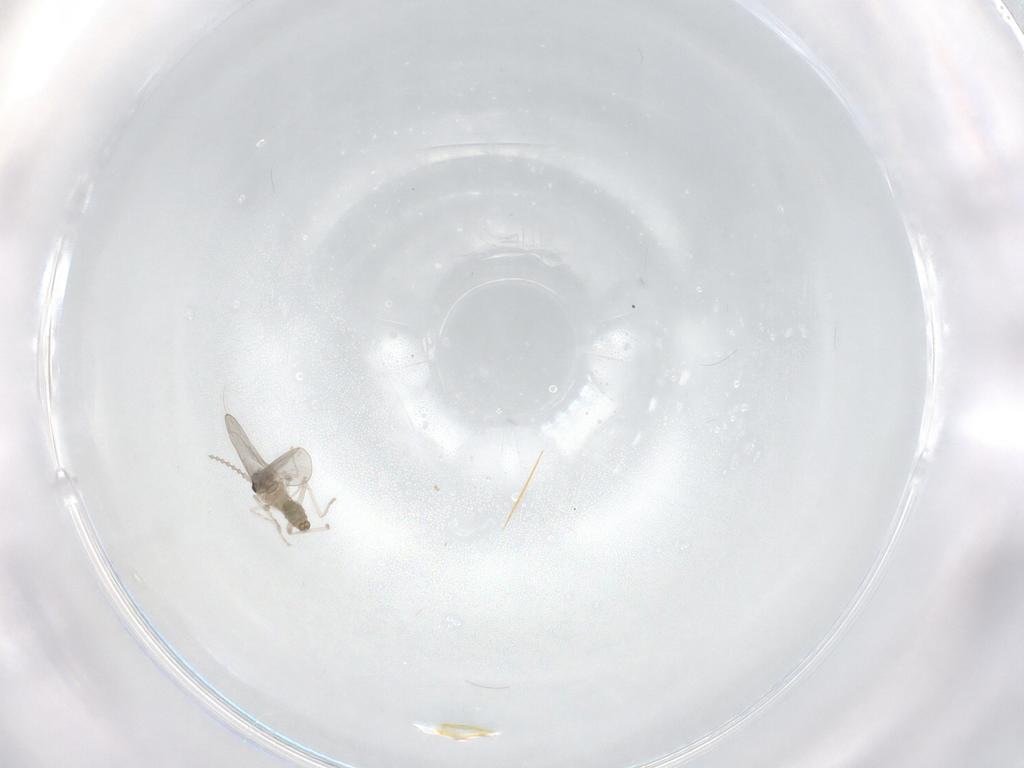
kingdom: Animalia
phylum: Arthropoda
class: Insecta
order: Diptera
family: Cecidomyiidae
